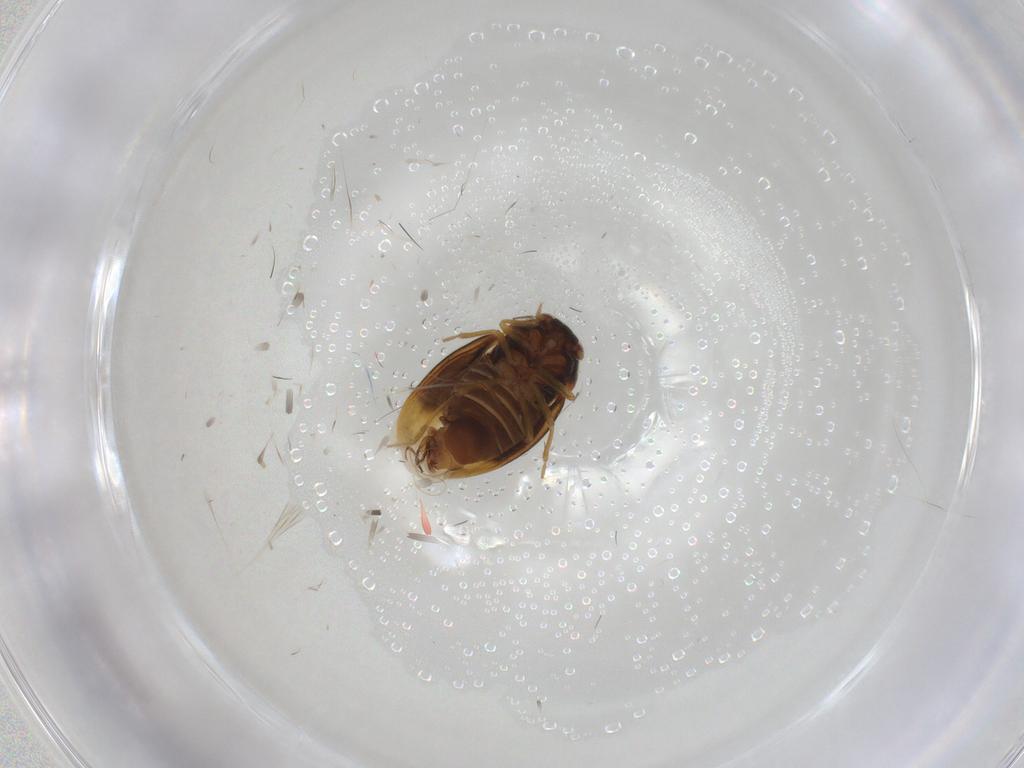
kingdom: Animalia
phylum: Arthropoda
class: Insecta
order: Hemiptera
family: Schizopteridae
